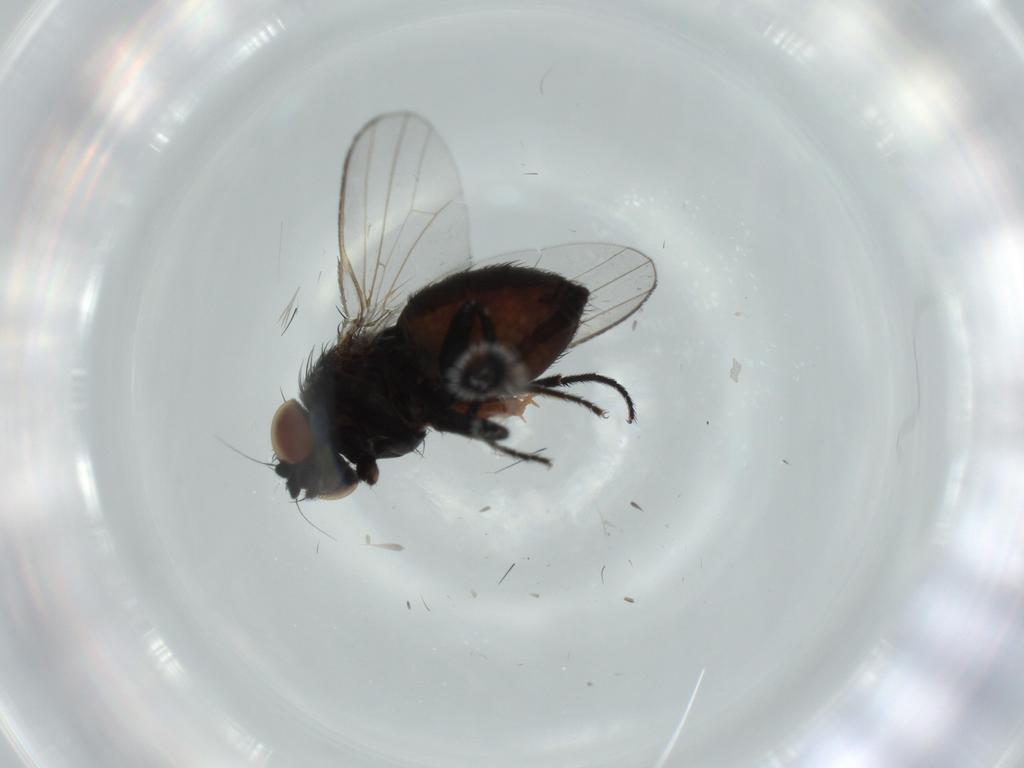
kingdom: Animalia
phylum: Arthropoda
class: Insecta
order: Diptera
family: Milichiidae
